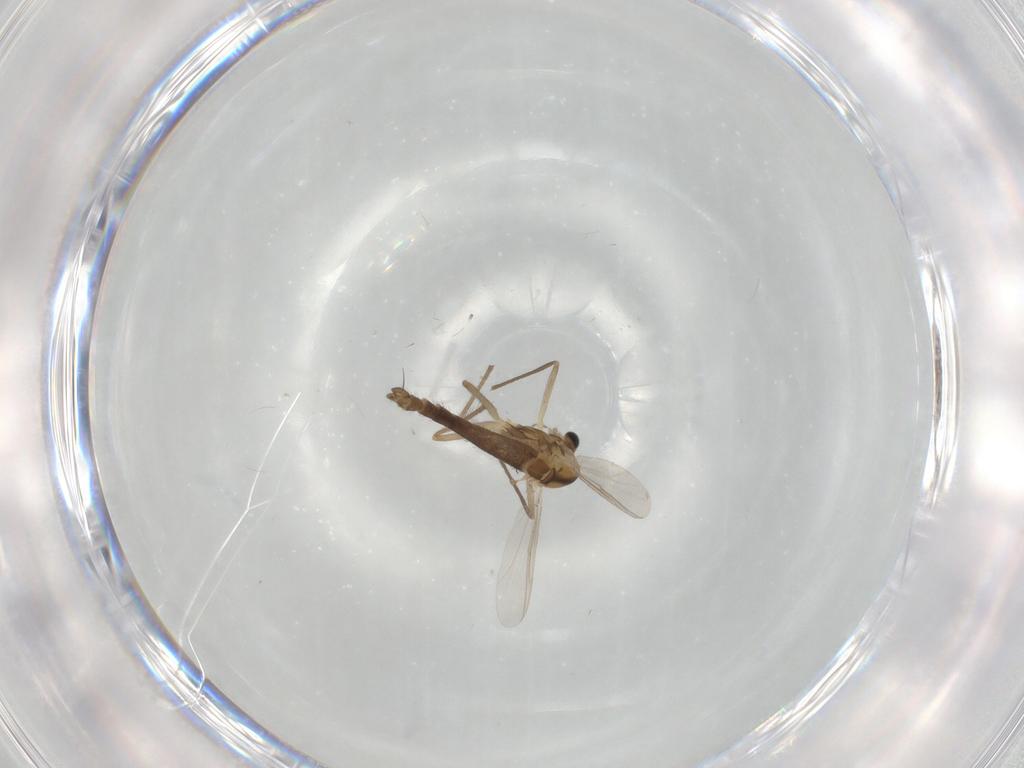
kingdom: Animalia
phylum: Arthropoda
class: Insecta
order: Diptera
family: Chironomidae
